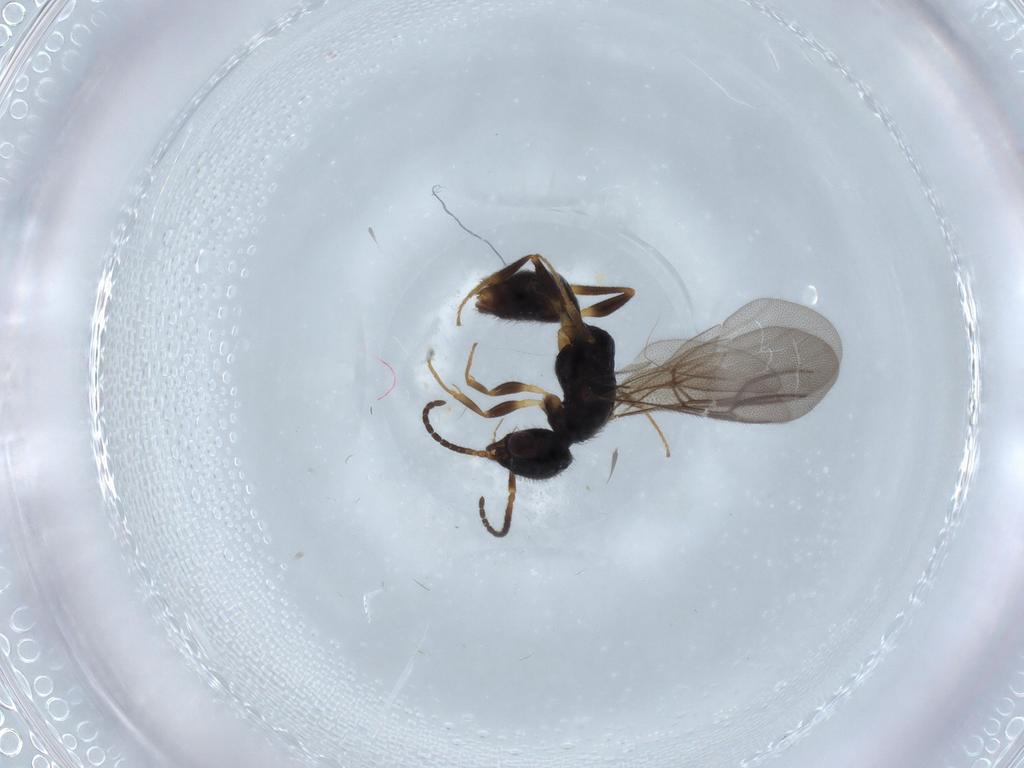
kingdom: Animalia
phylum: Arthropoda
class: Insecta
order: Hymenoptera
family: Bethylidae
